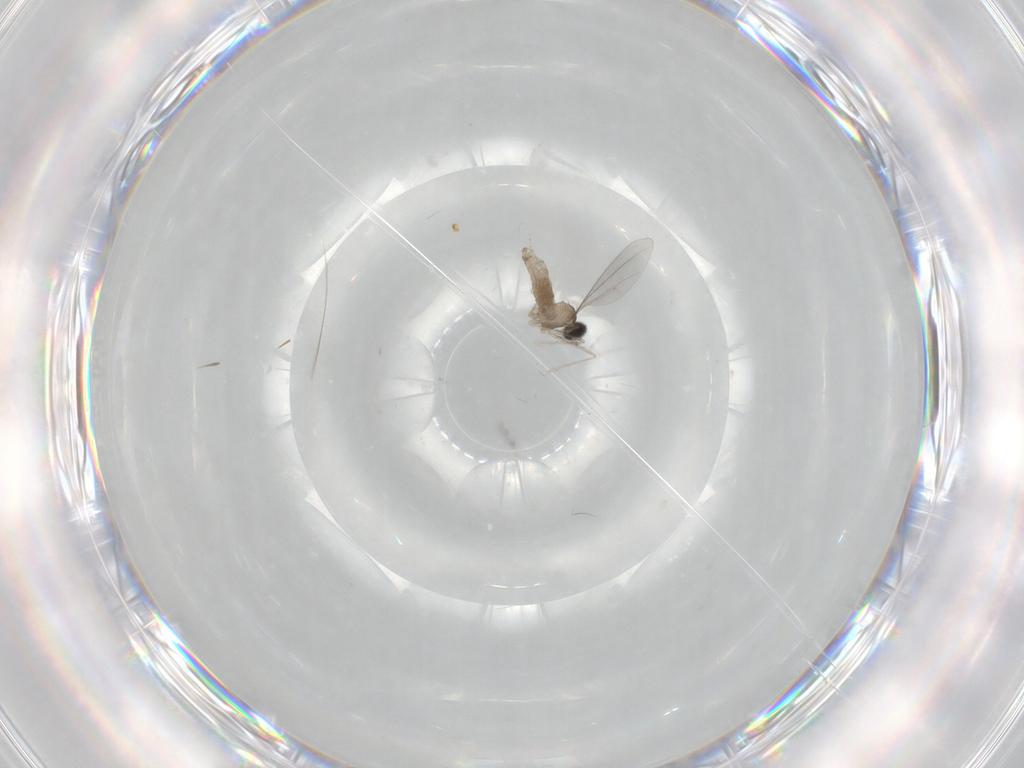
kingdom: Animalia
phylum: Arthropoda
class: Insecta
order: Diptera
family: Cecidomyiidae
